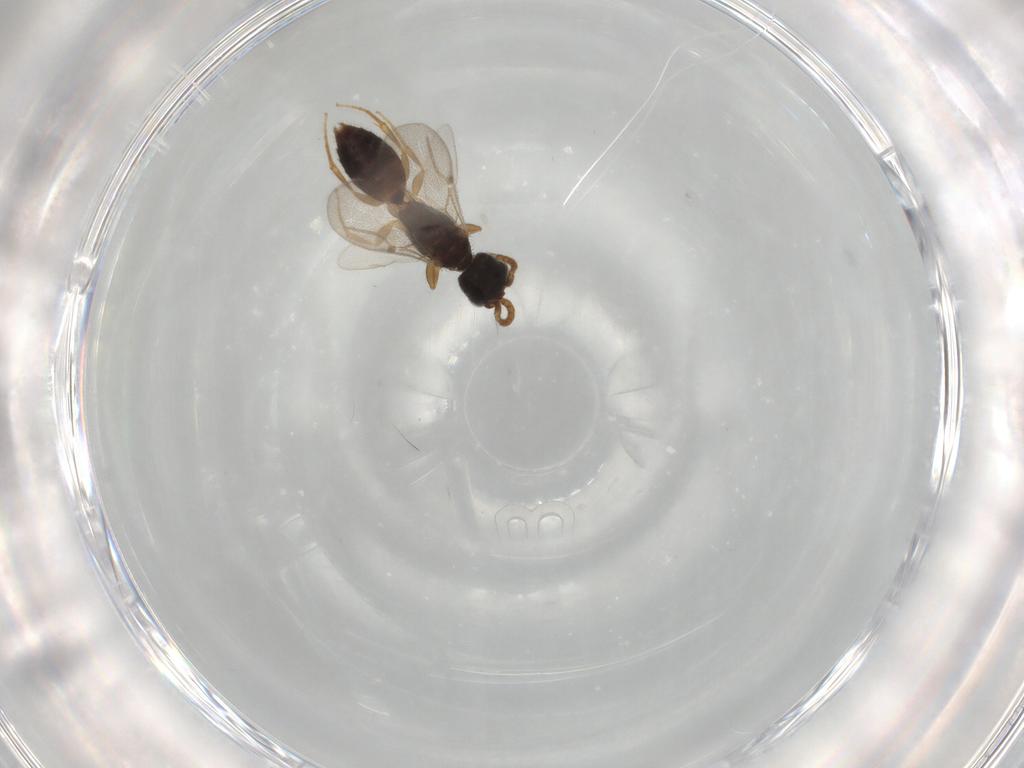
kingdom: Animalia
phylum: Arthropoda
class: Insecta
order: Hymenoptera
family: Bethylidae
